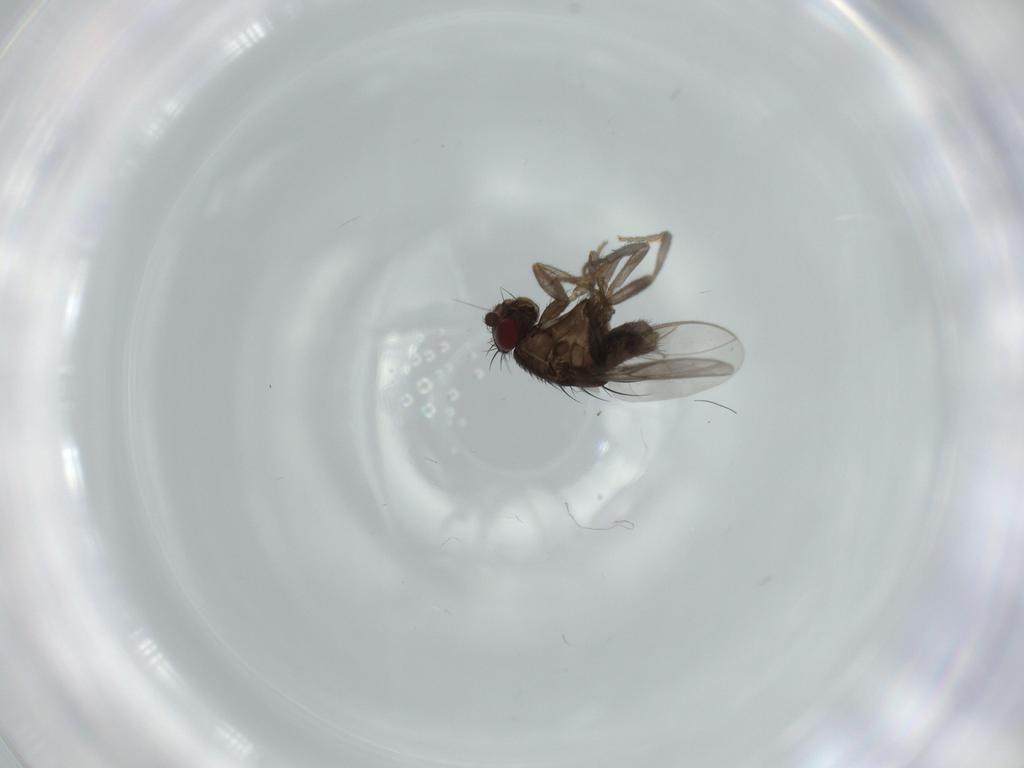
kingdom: Animalia
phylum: Arthropoda
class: Insecta
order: Diptera
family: Sphaeroceridae
